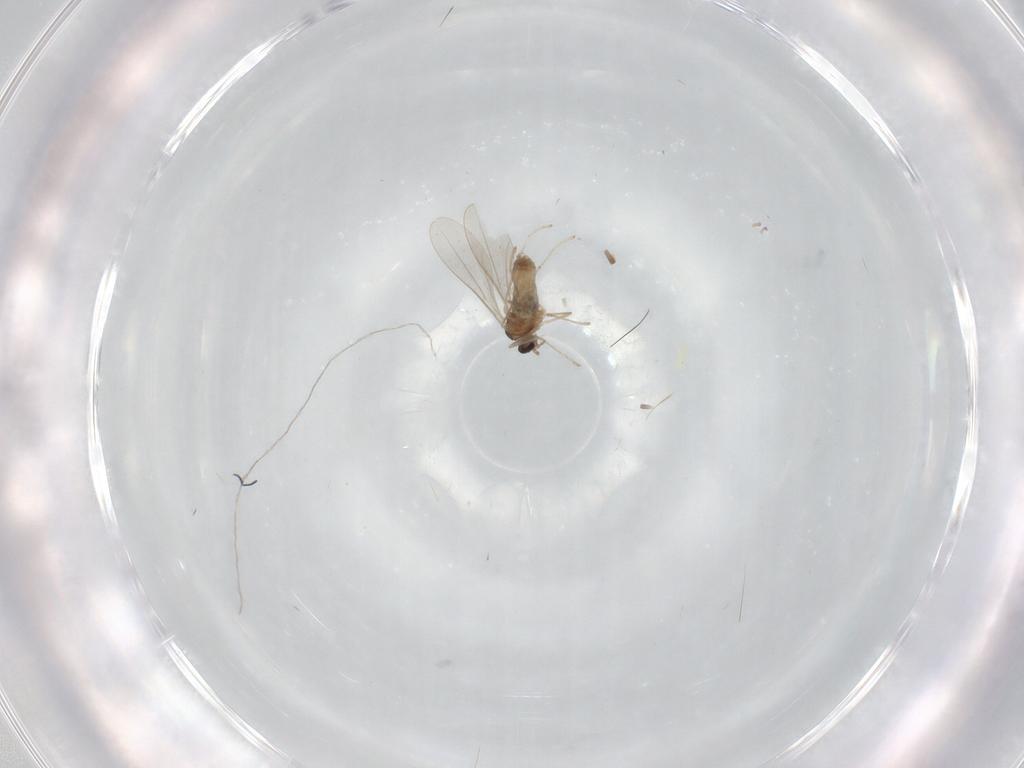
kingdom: Animalia
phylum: Arthropoda
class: Insecta
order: Diptera
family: Cecidomyiidae
